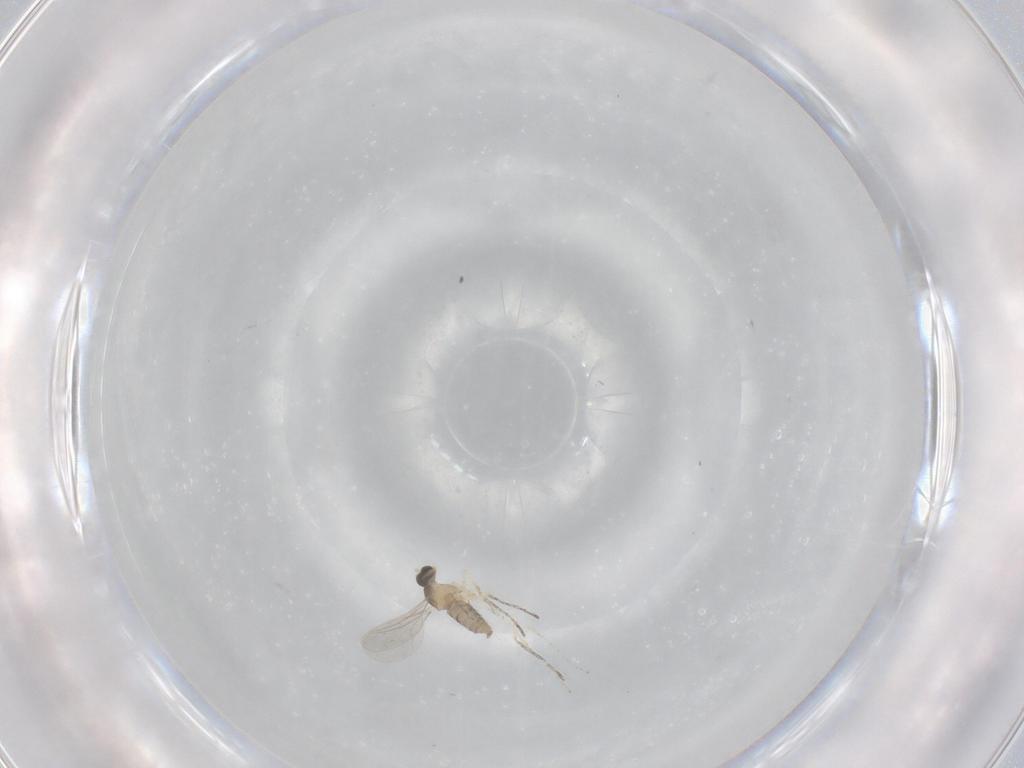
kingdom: Animalia
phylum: Arthropoda
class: Insecta
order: Diptera
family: Cecidomyiidae
